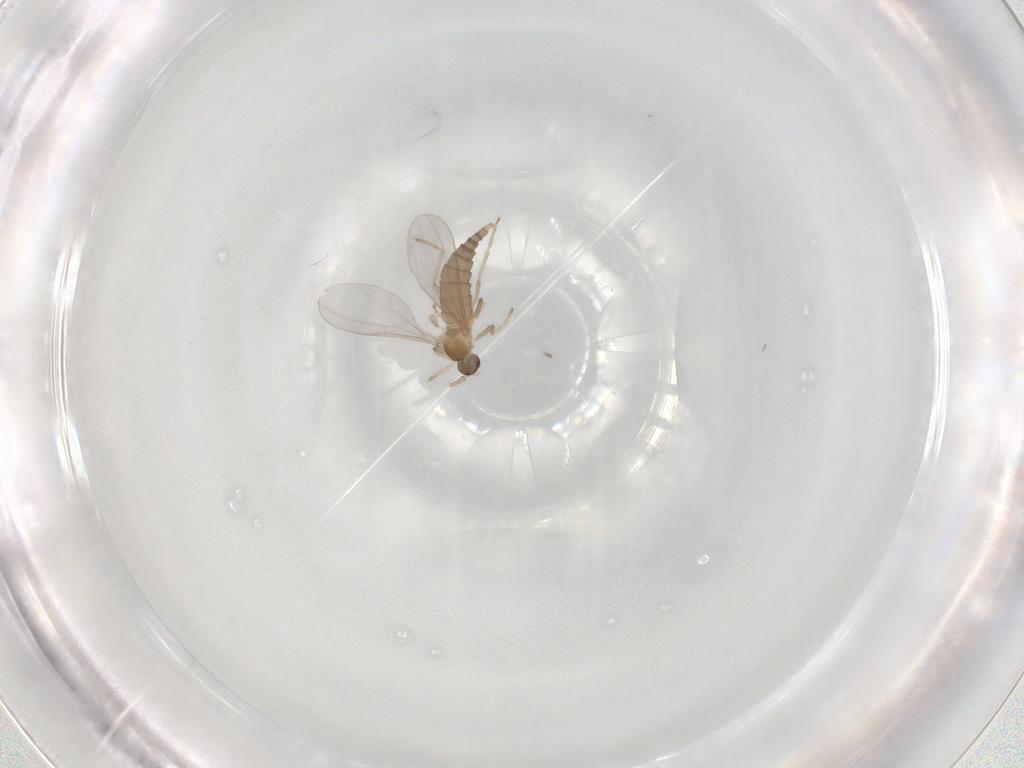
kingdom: Animalia
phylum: Arthropoda
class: Insecta
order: Diptera
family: Cecidomyiidae
